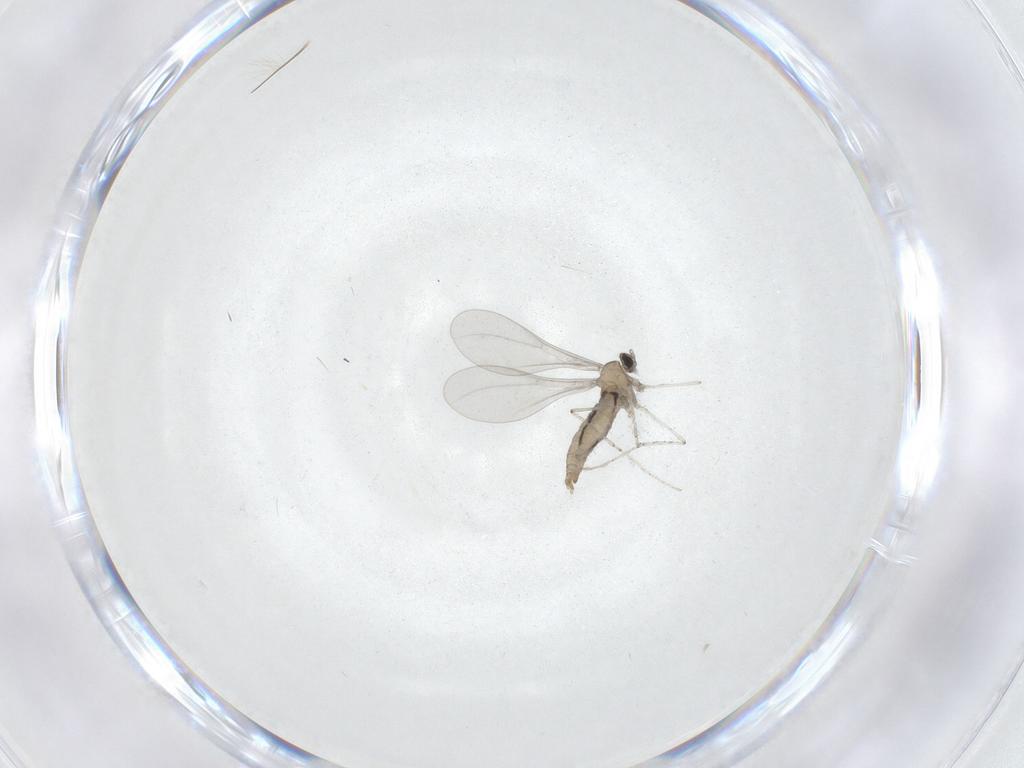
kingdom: Animalia
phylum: Arthropoda
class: Insecta
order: Diptera
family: Cecidomyiidae
